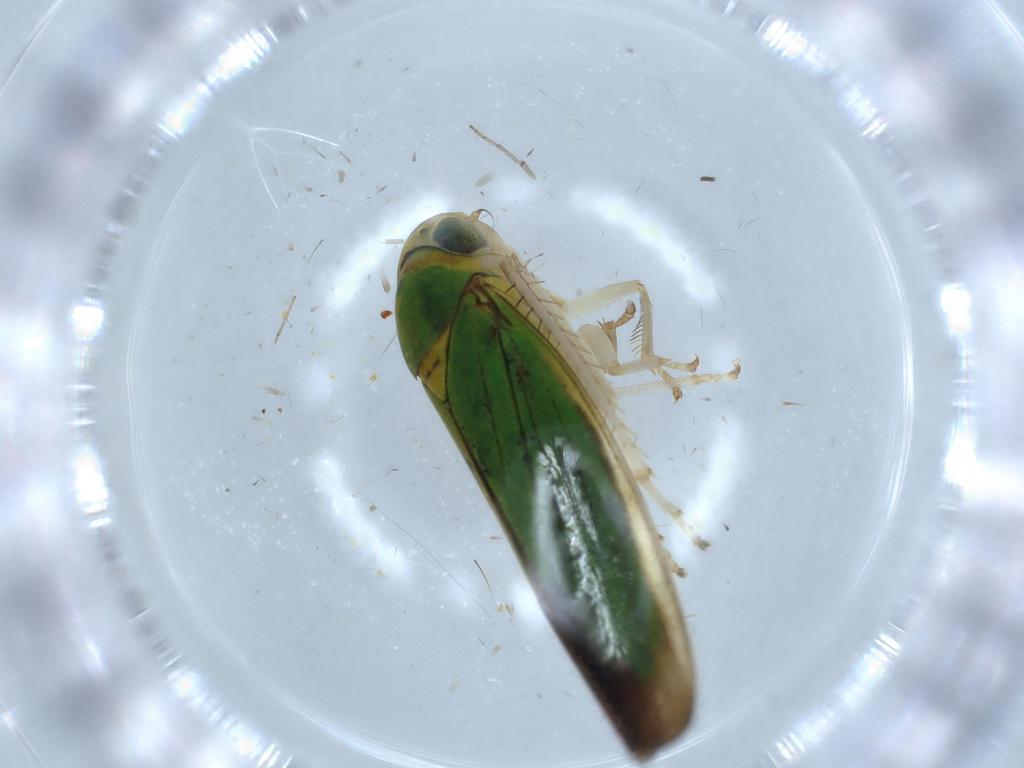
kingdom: Animalia
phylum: Arthropoda
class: Insecta
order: Hemiptera
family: Cicadellidae
